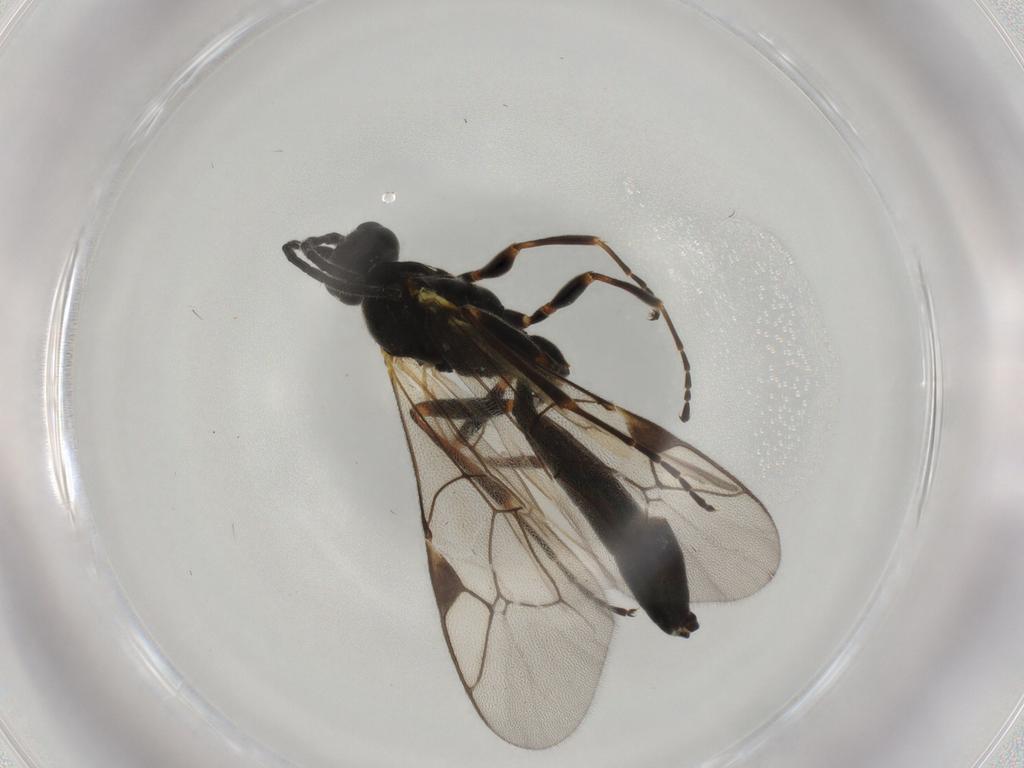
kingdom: Animalia
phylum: Arthropoda
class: Insecta
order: Hymenoptera
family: Ichneumonidae
